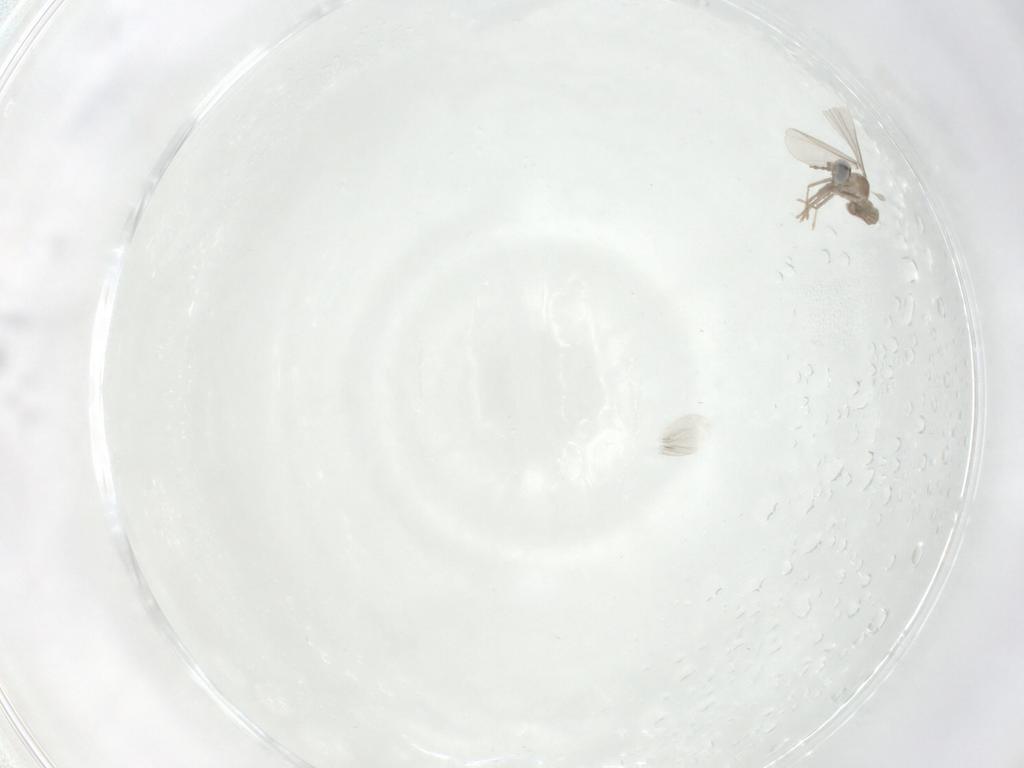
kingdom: Animalia
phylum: Arthropoda
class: Insecta
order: Diptera
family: Cecidomyiidae
